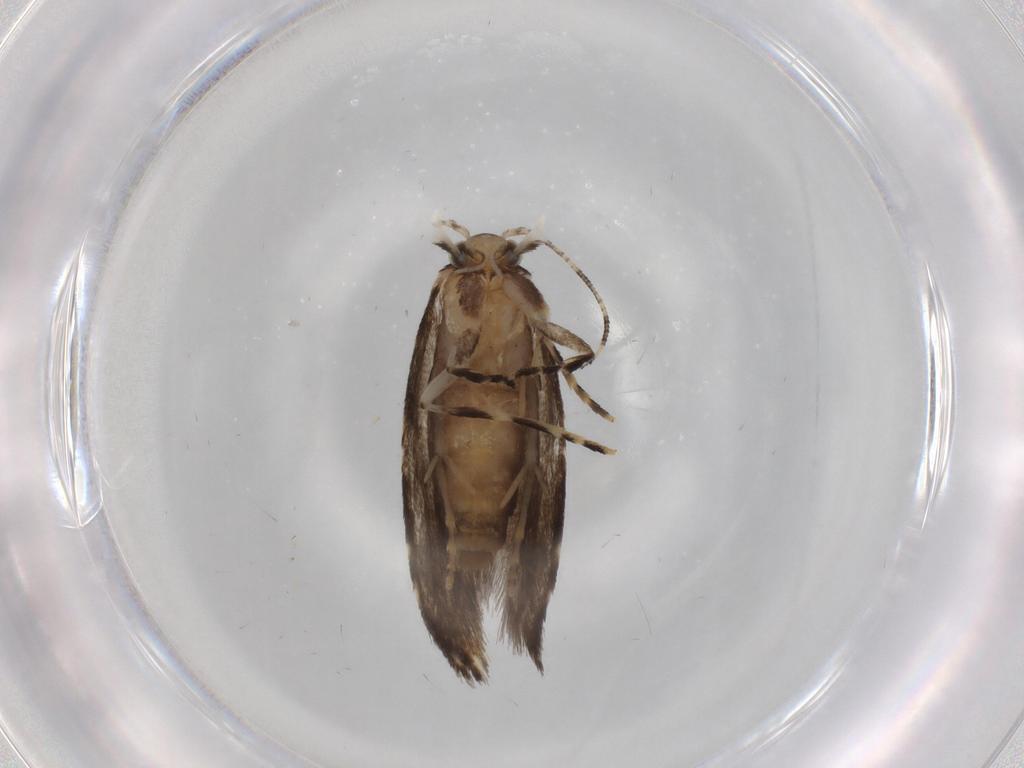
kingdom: Animalia
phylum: Arthropoda
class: Insecta
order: Lepidoptera
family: Tineidae
